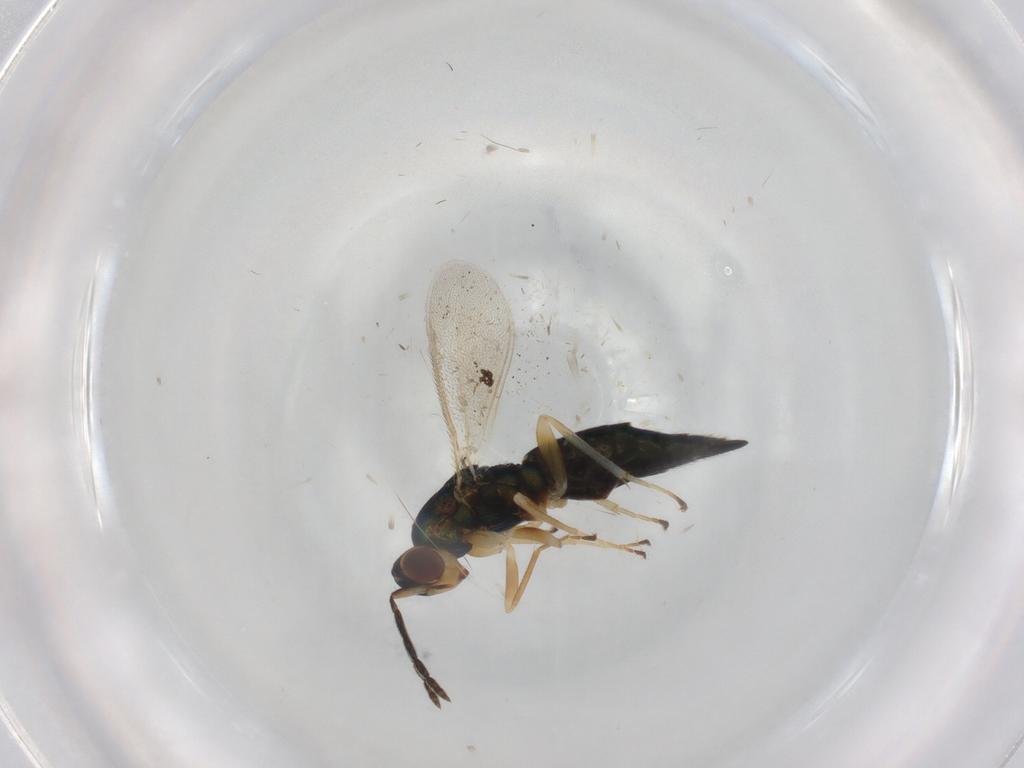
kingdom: Animalia
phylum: Arthropoda
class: Insecta
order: Hymenoptera
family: Eulophidae
